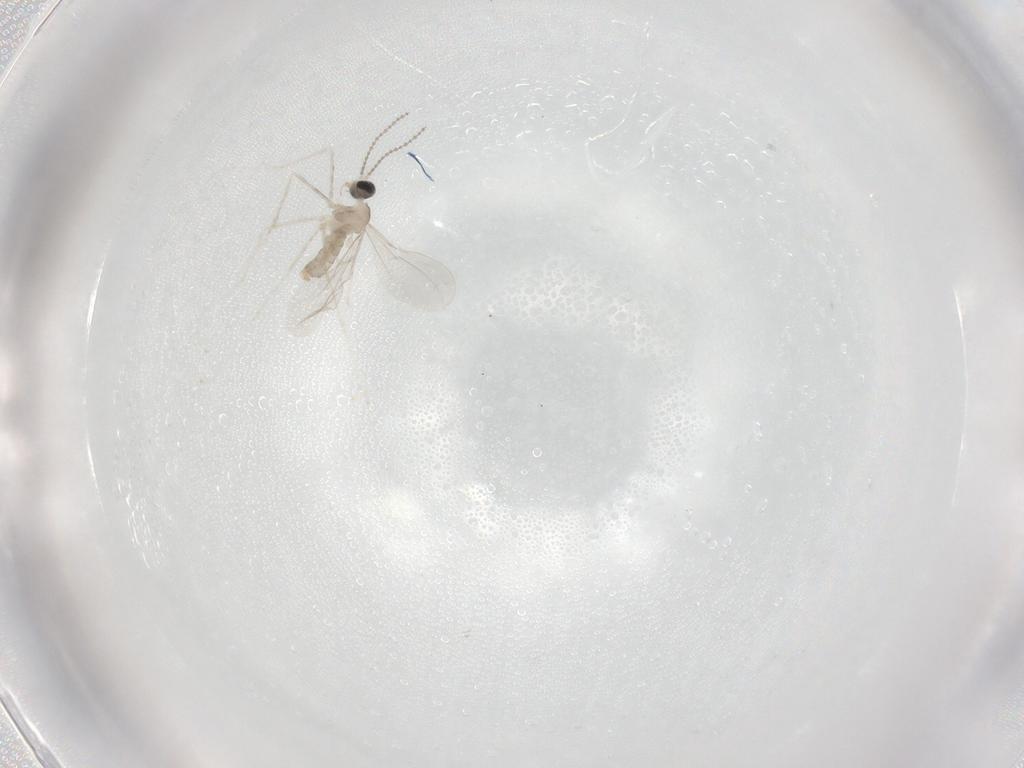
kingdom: Animalia
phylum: Arthropoda
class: Insecta
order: Diptera
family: Cecidomyiidae
